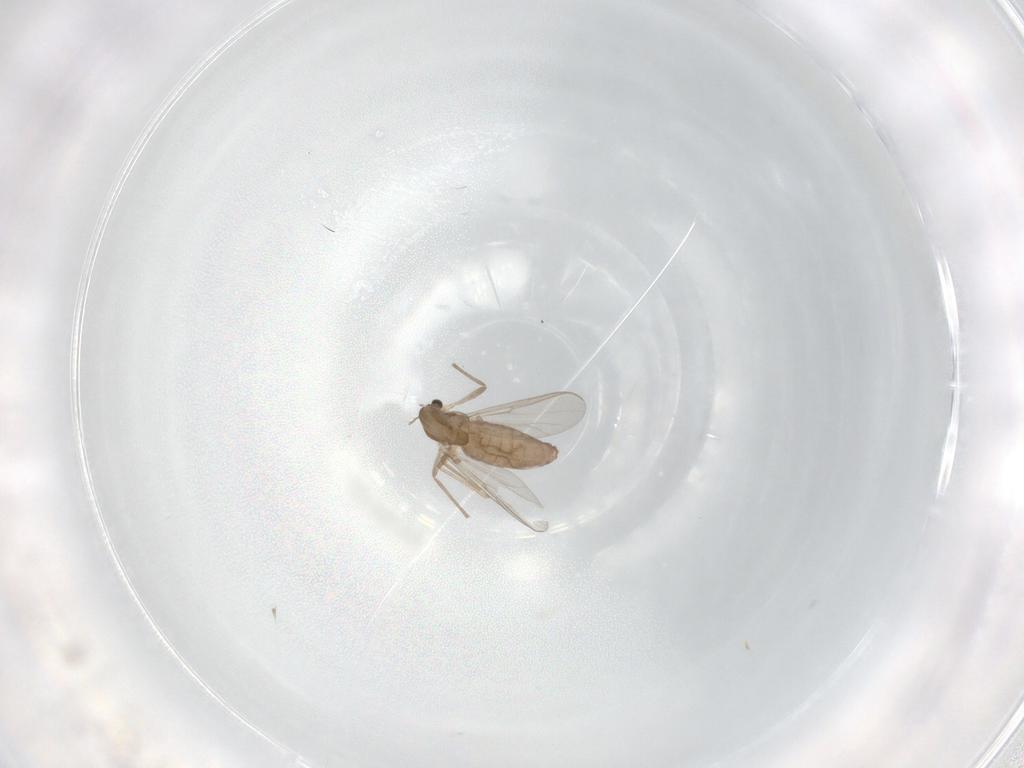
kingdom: Animalia
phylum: Arthropoda
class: Insecta
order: Diptera
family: Chironomidae
